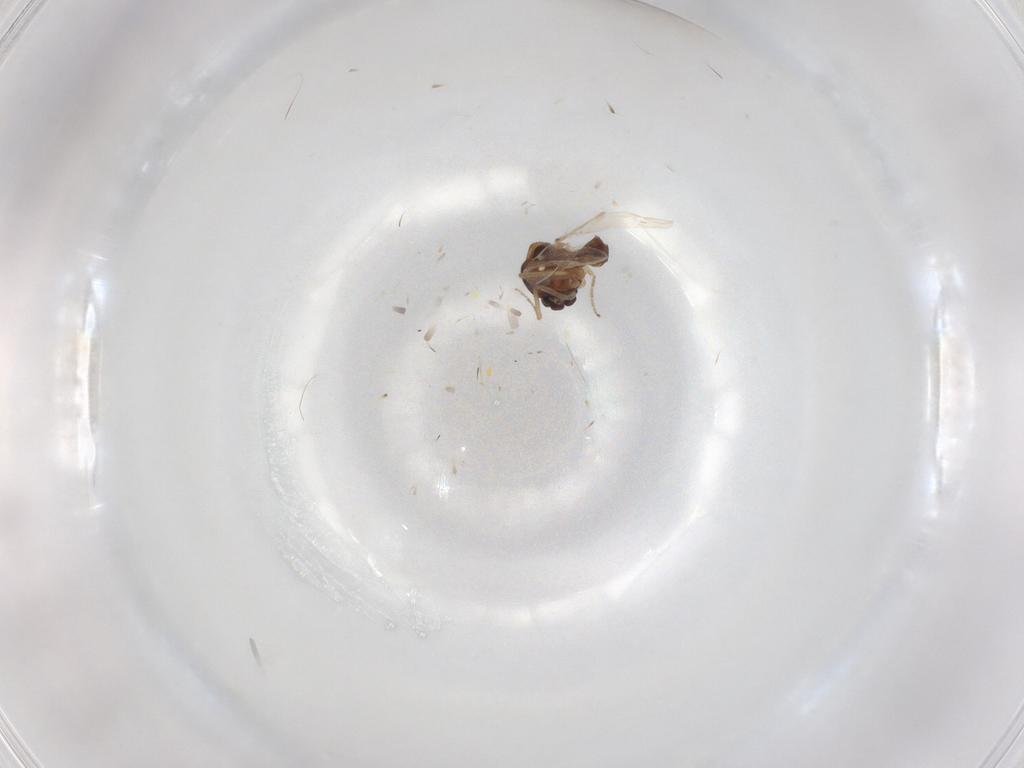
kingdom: Animalia
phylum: Arthropoda
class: Insecta
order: Diptera
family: Ceratopogonidae
